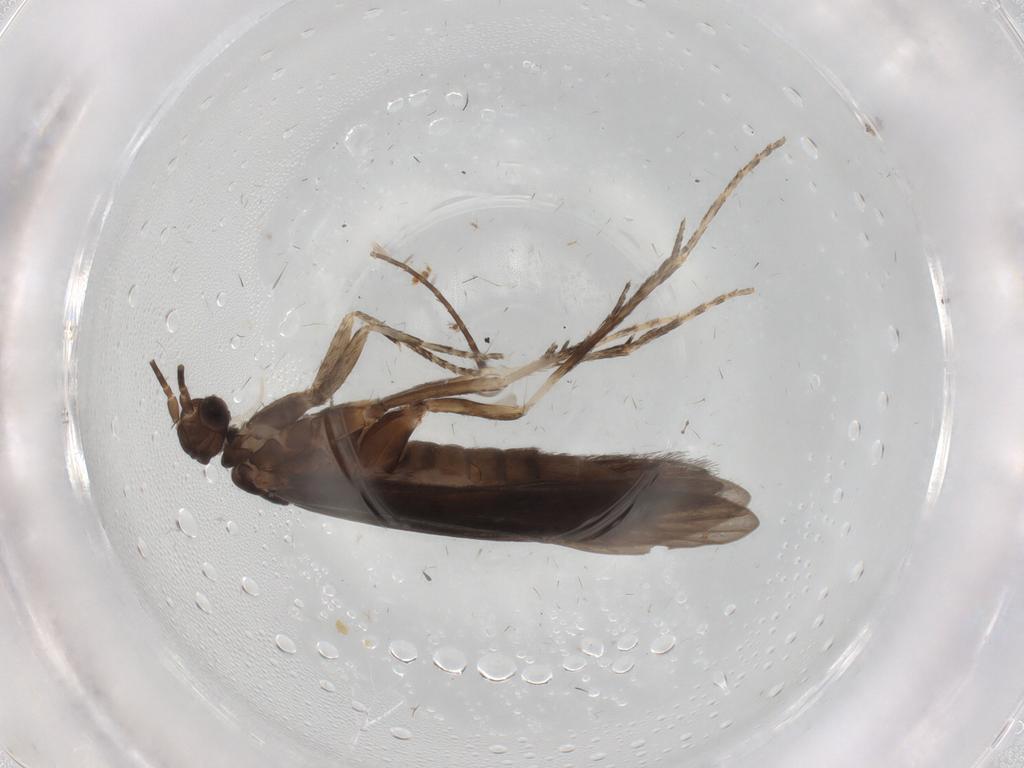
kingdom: Animalia
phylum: Arthropoda
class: Insecta
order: Trichoptera
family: Xiphocentronidae
